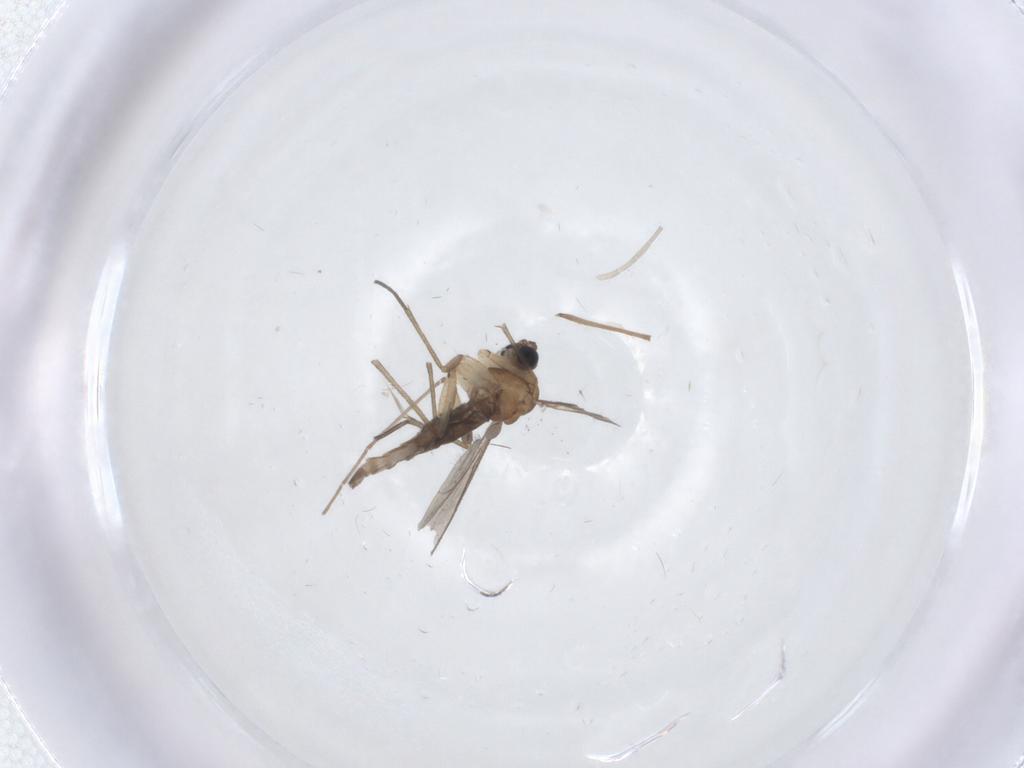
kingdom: Animalia
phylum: Arthropoda
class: Insecta
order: Diptera
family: Sciaridae
